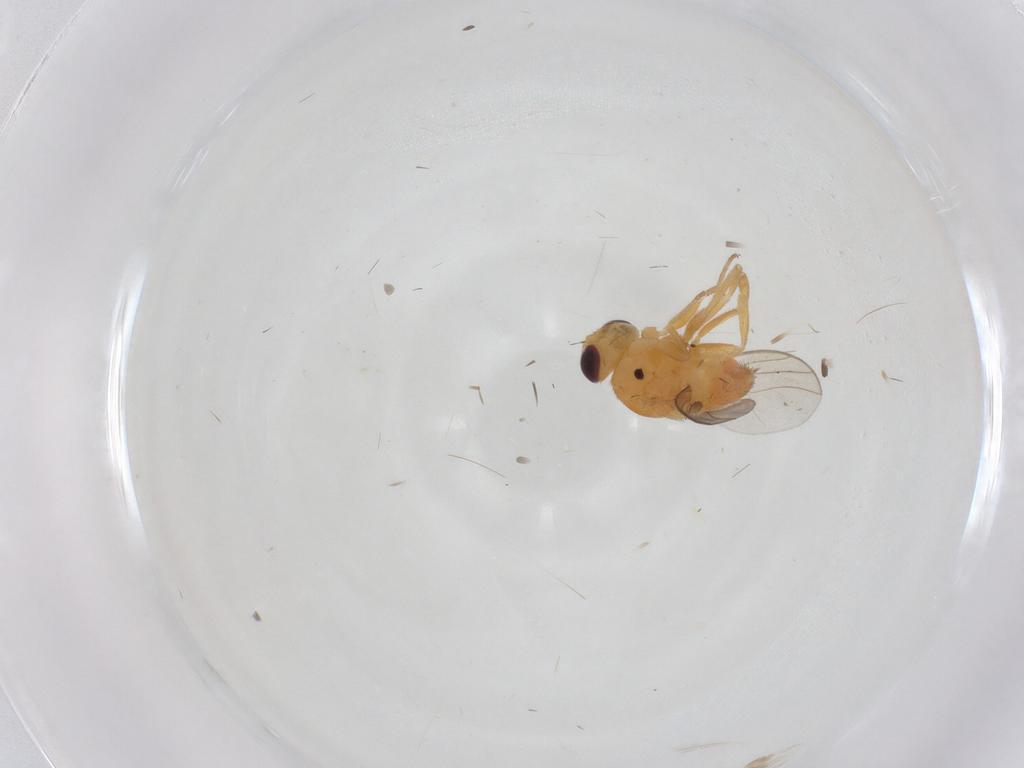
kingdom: Animalia
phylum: Arthropoda
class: Insecta
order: Diptera
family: Chloropidae
